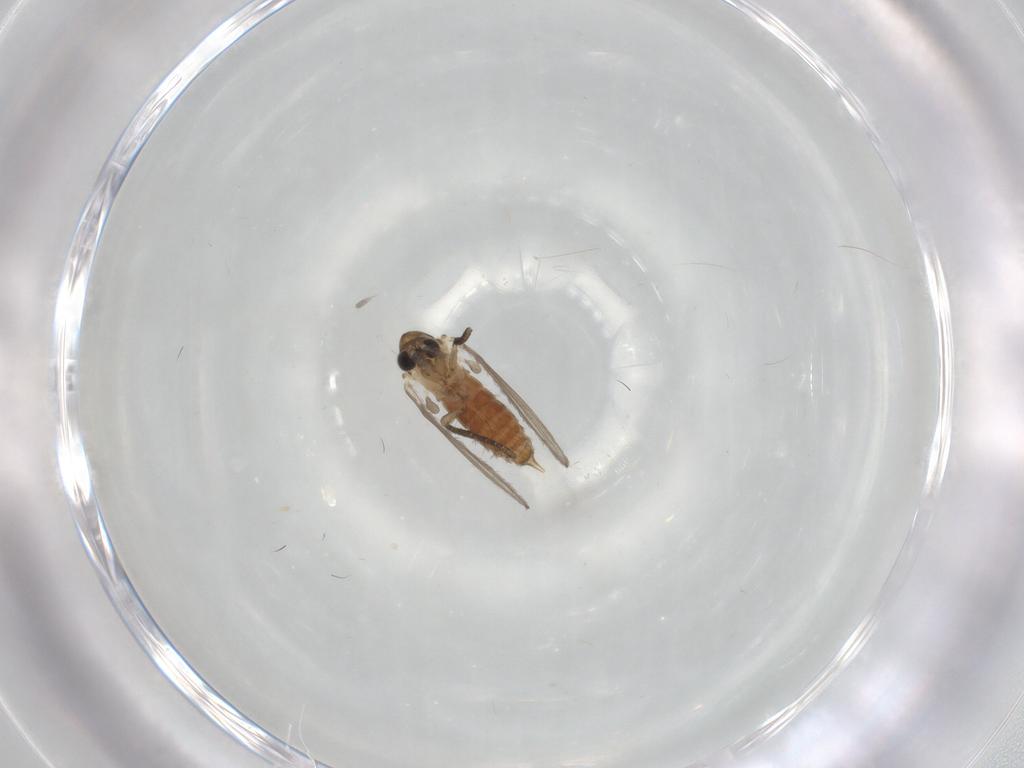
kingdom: Animalia
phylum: Arthropoda
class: Insecta
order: Diptera
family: Psychodidae
